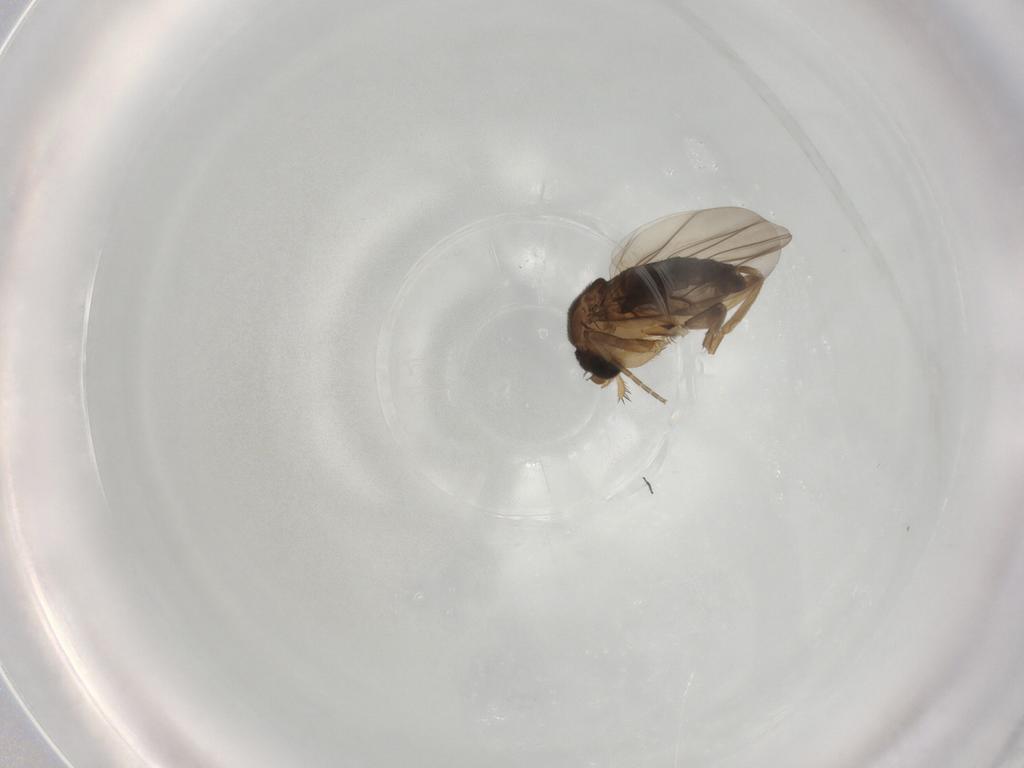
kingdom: Animalia
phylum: Arthropoda
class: Insecta
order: Diptera
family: Phoridae
